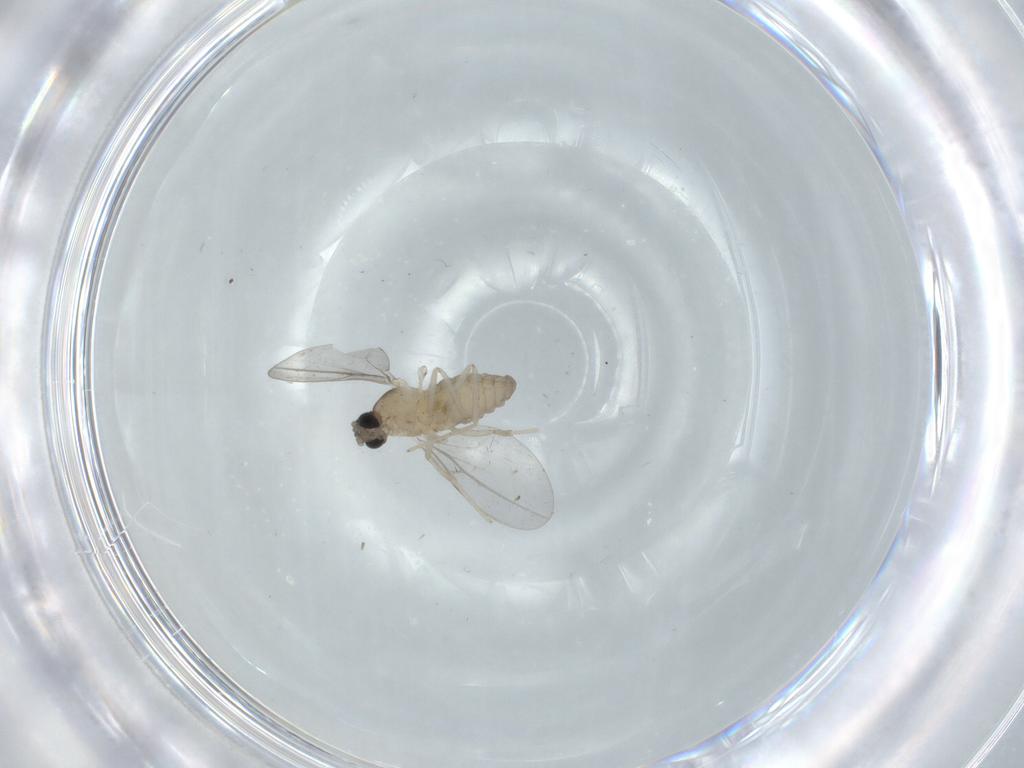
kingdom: Animalia
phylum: Arthropoda
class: Insecta
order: Diptera
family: Cecidomyiidae
